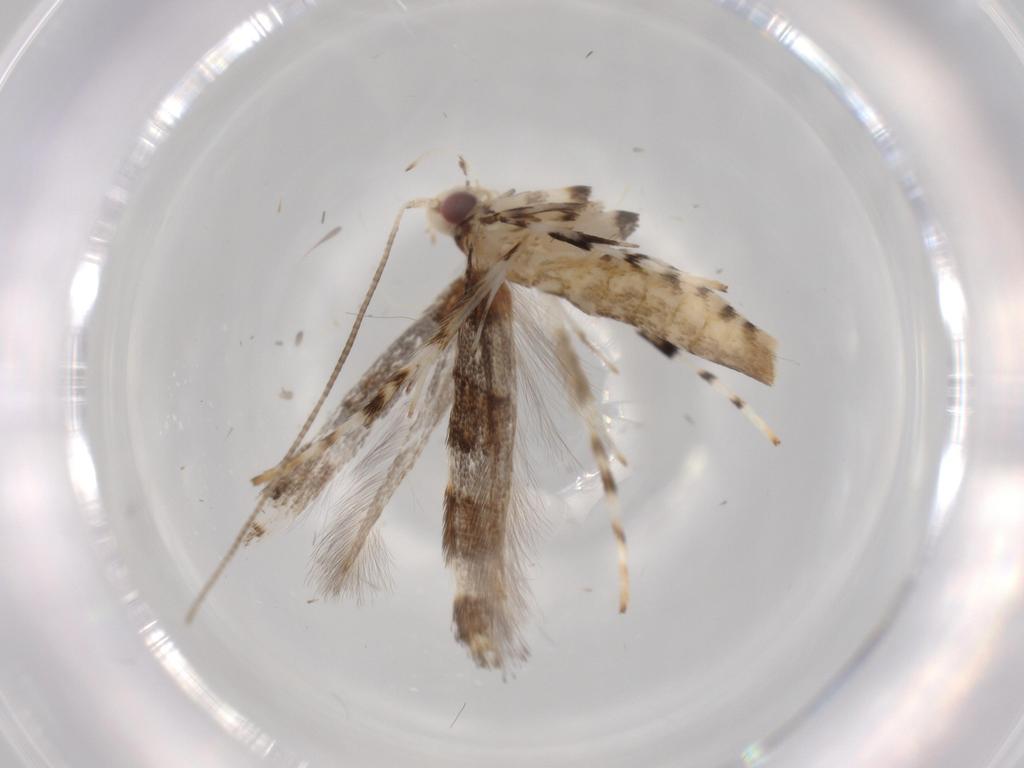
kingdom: Animalia
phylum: Arthropoda
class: Insecta
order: Lepidoptera
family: Gracillariidae
